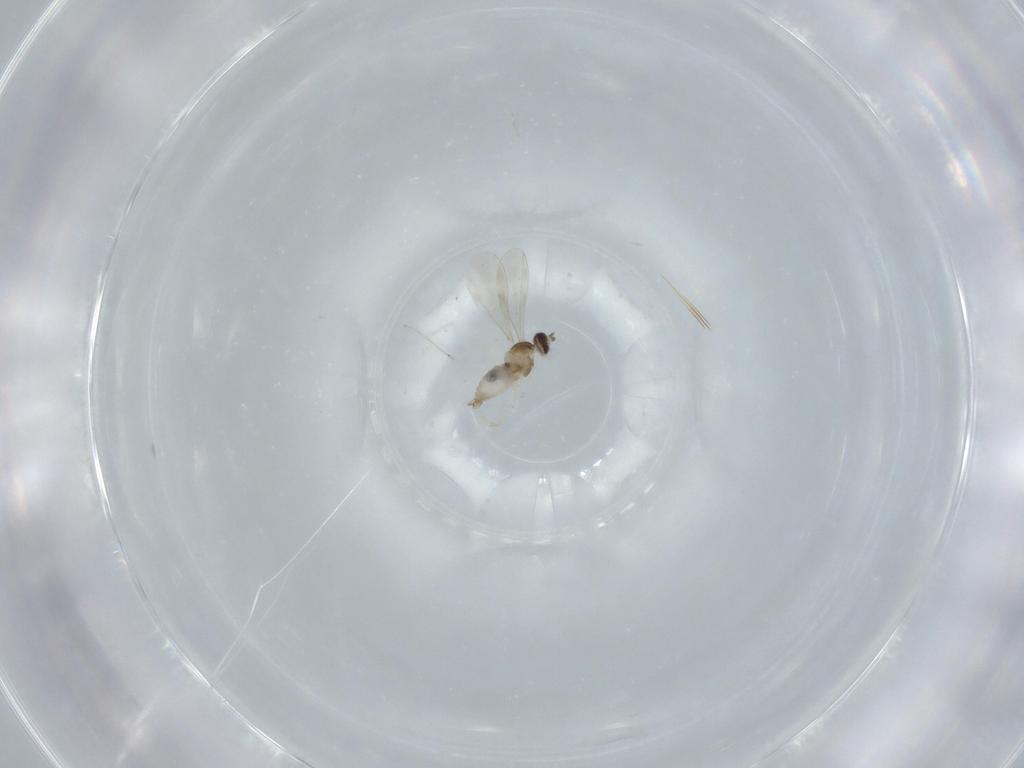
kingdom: Animalia
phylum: Arthropoda
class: Insecta
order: Diptera
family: Cecidomyiidae
